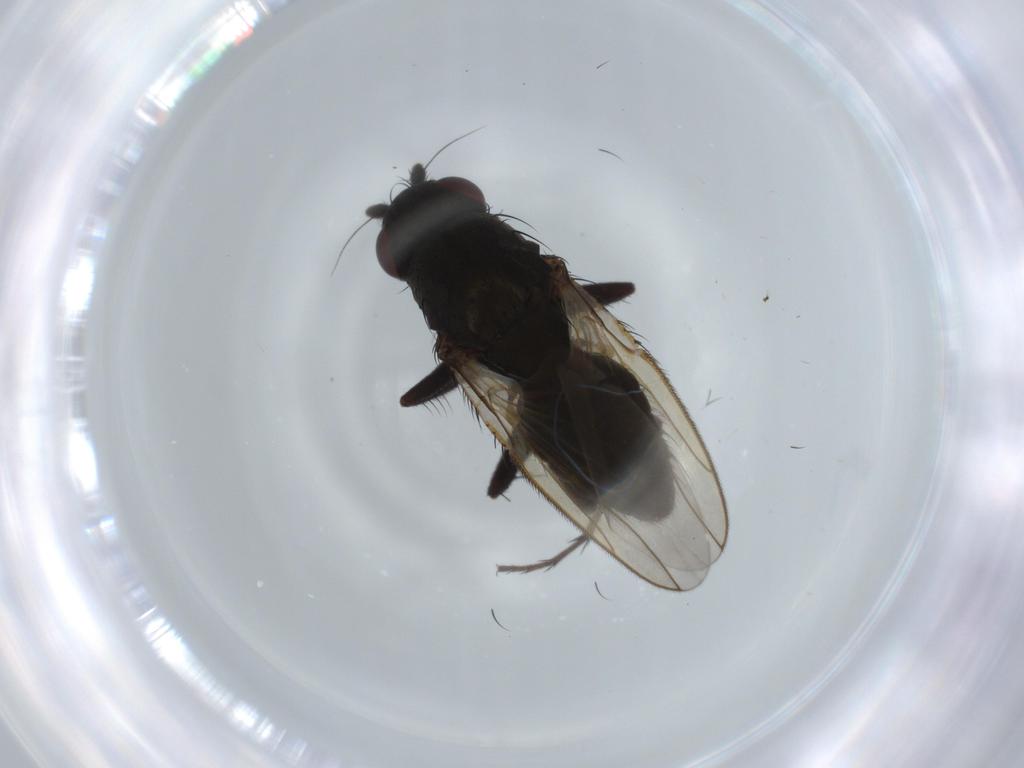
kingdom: Animalia
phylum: Arthropoda
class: Insecta
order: Diptera
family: Sphaeroceridae
